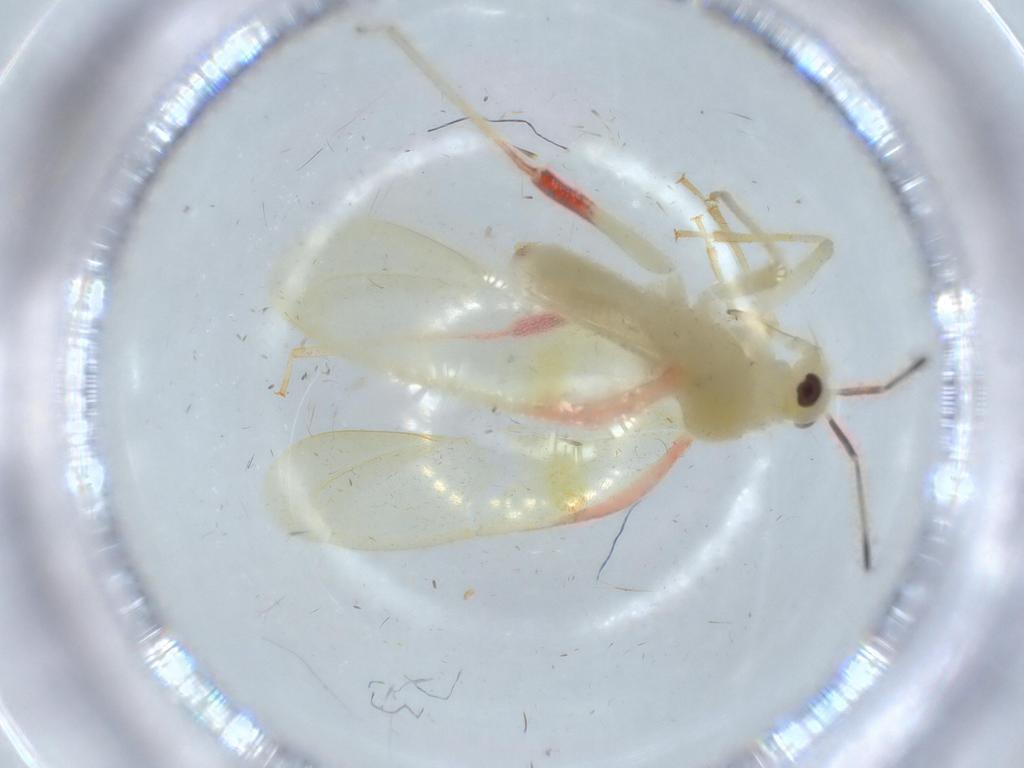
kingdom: Animalia
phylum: Arthropoda
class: Insecta
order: Hemiptera
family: Miridae
